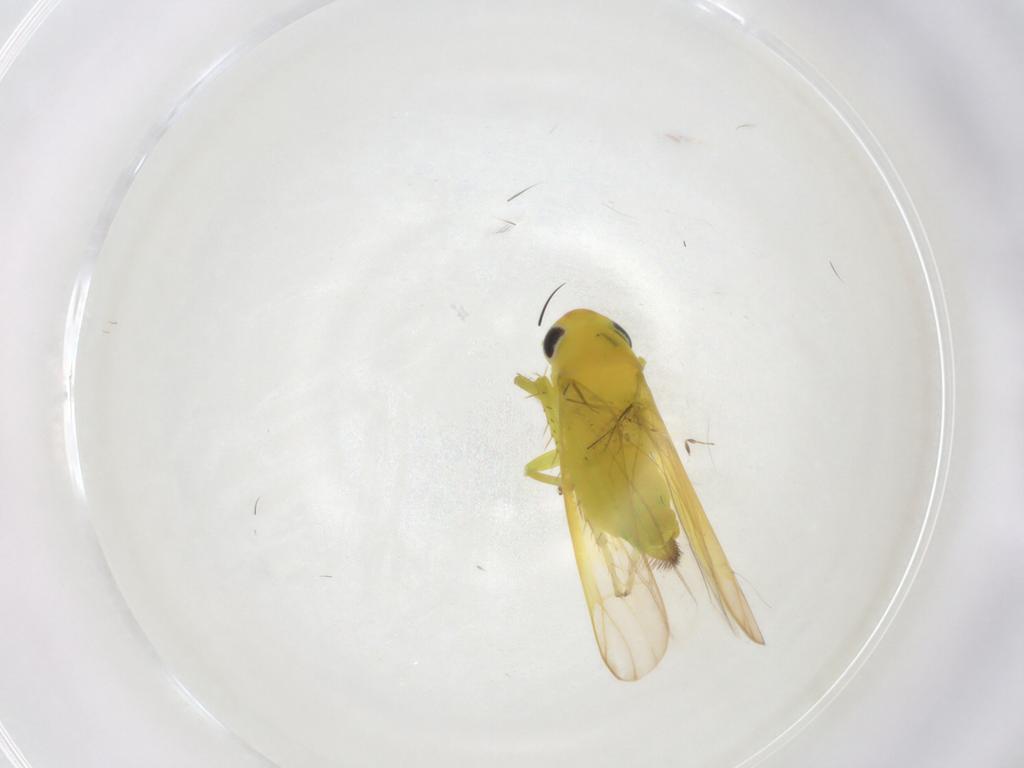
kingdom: Animalia
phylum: Arthropoda
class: Insecta
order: Hemiptera
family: Cicadellidae
